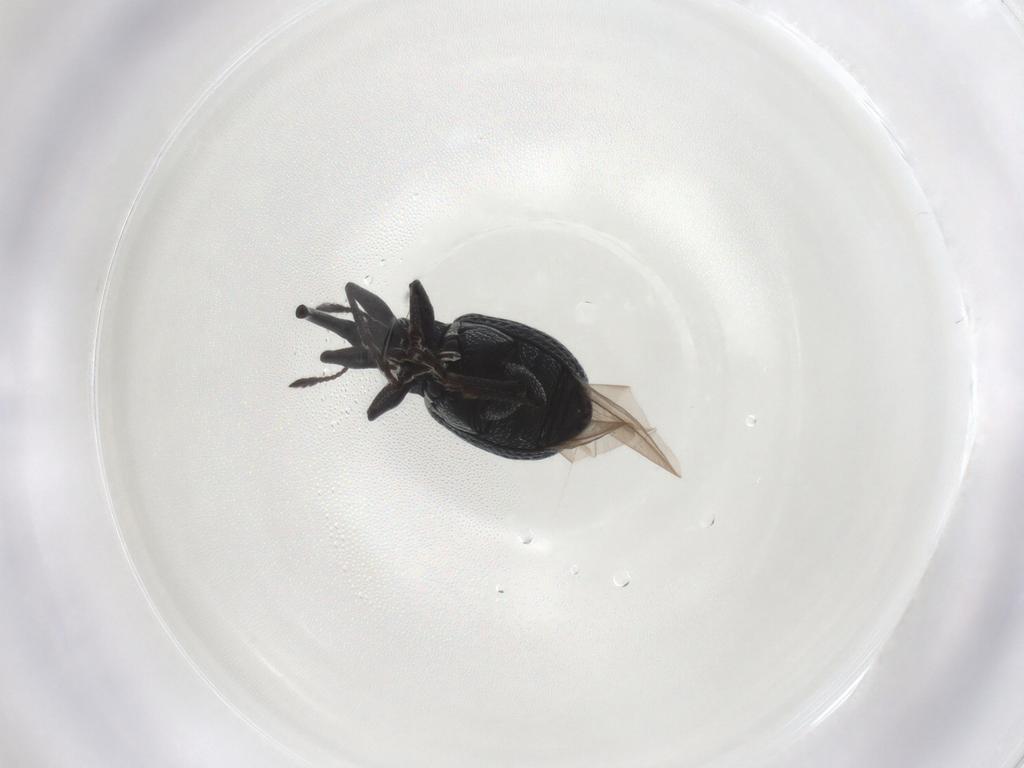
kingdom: Animalia
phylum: Arthropoda
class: Insecta
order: Coleoptera
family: Brentidae
